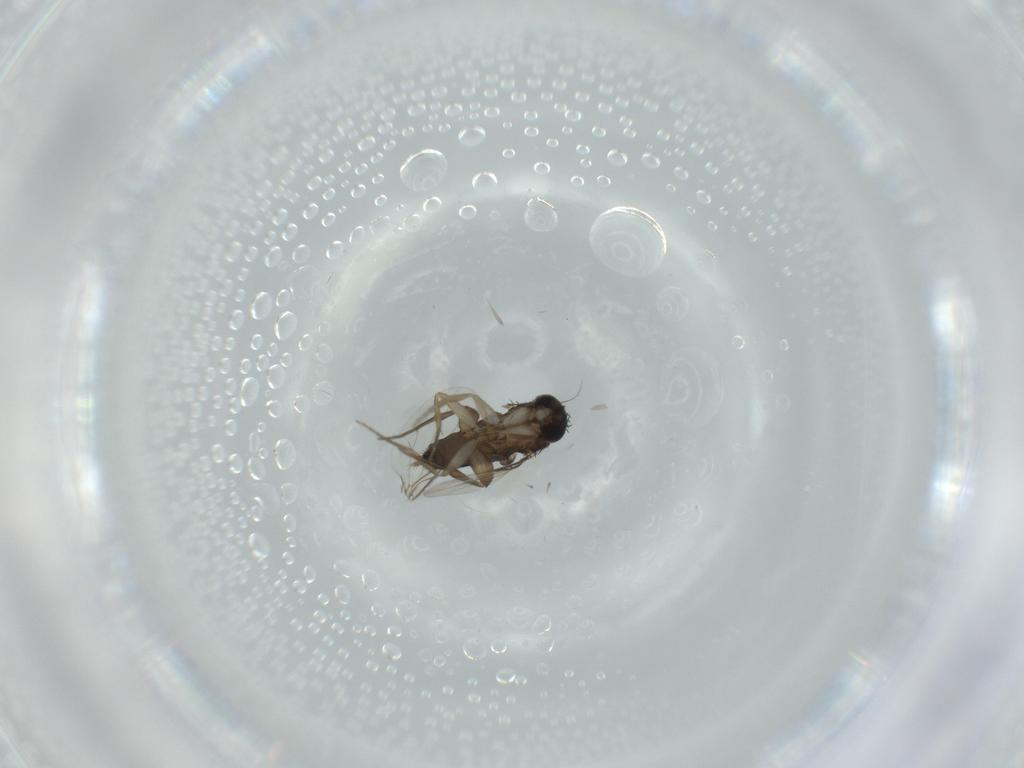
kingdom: Animalia
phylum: Arthropoda
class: Insecta
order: Diptera
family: Phoridae
